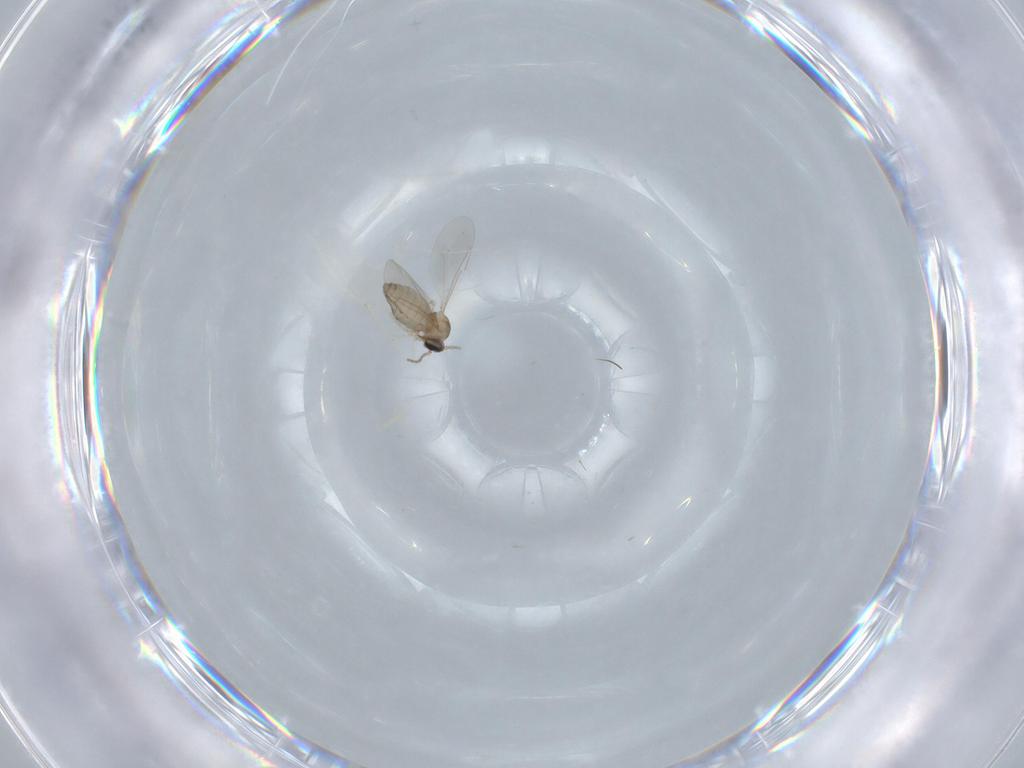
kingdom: Animalia
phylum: Arthropoda
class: Insecta
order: Diptera
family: Cecidomyiidae
